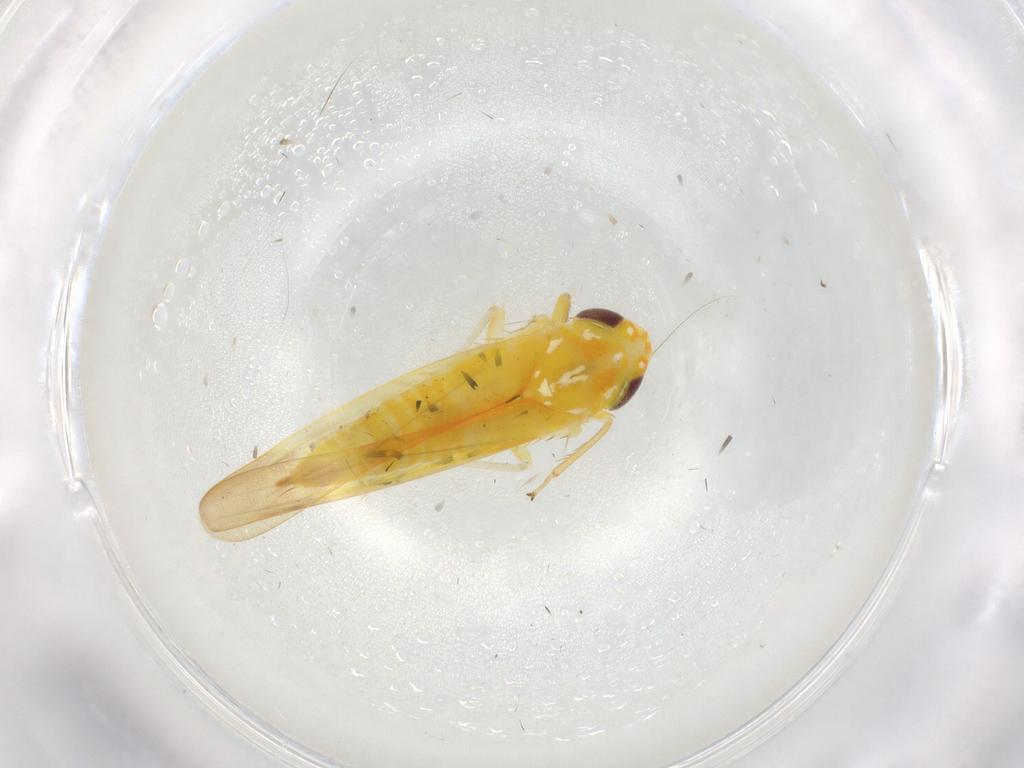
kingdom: Animalia
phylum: Arthropoda
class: Insecta
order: Hemiptera
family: Cicadellidae
